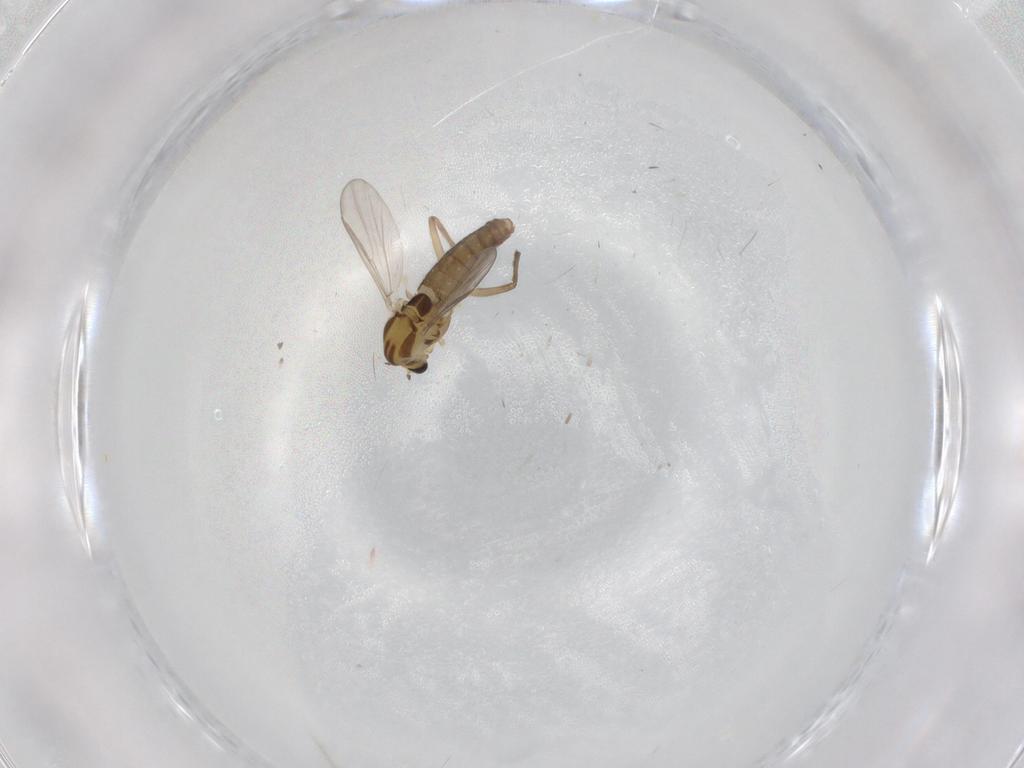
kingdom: Animalia
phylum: Arthropoda
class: Insecta
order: Diptera
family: Chironomidae
